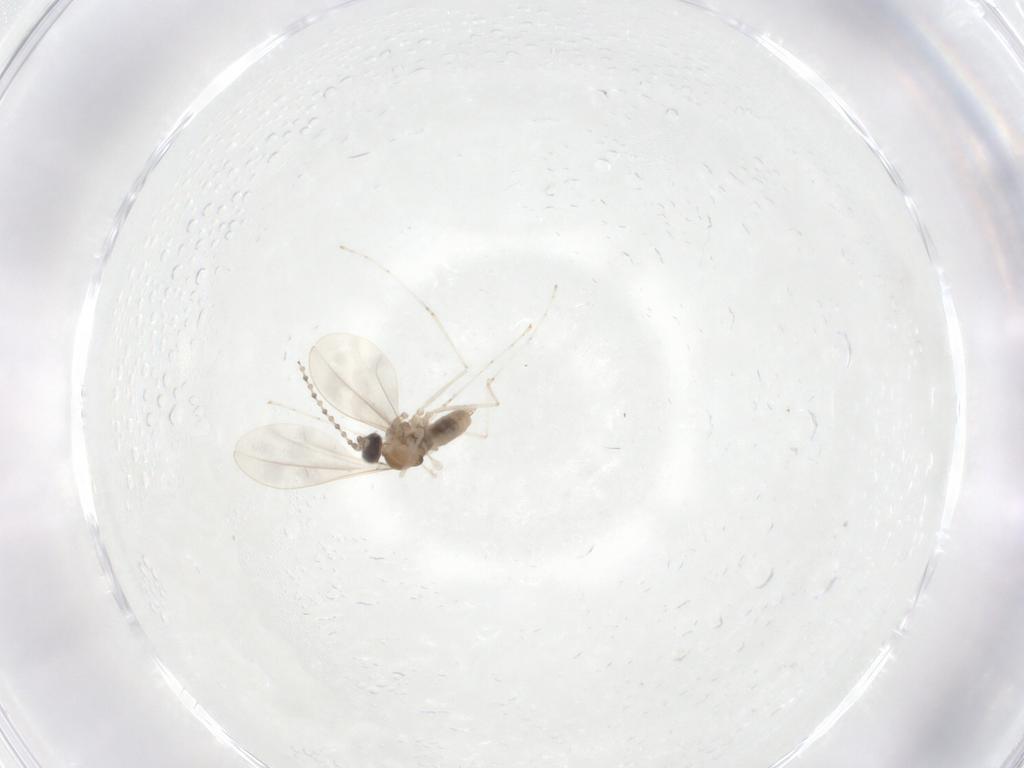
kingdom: Animalia
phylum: Arthropoda
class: Insecta
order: Diptera
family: Cecidomyiidae
